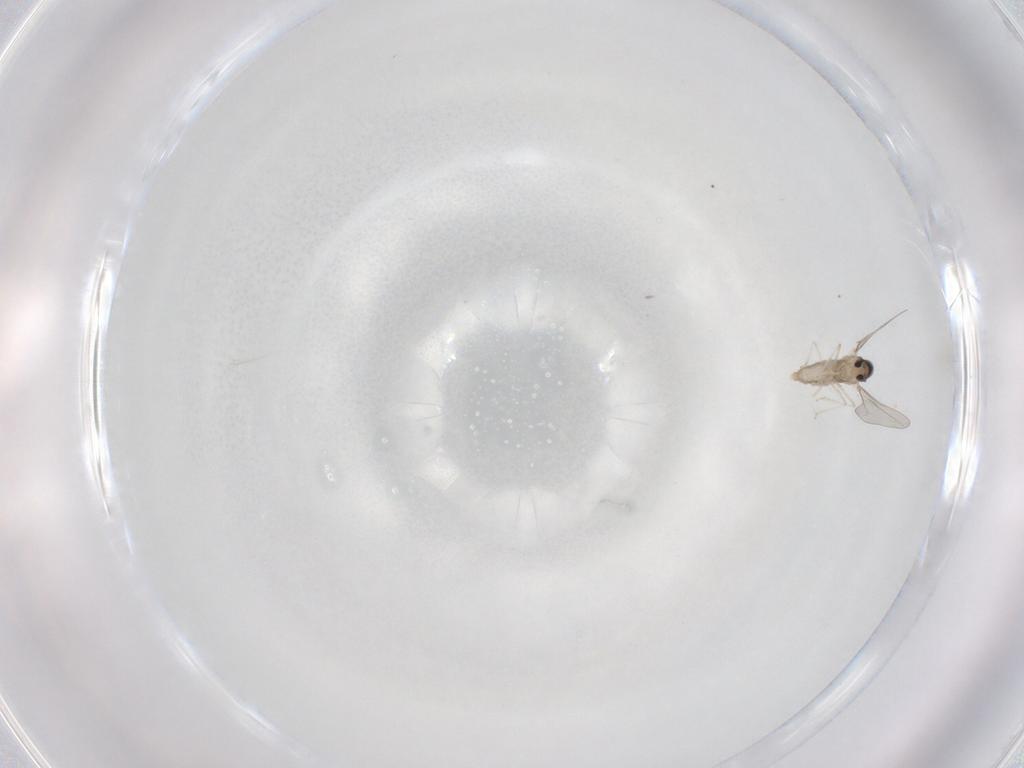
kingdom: Animalia
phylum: Arthropoda
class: Insecta
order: Diptera
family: Cecidomyiidae
